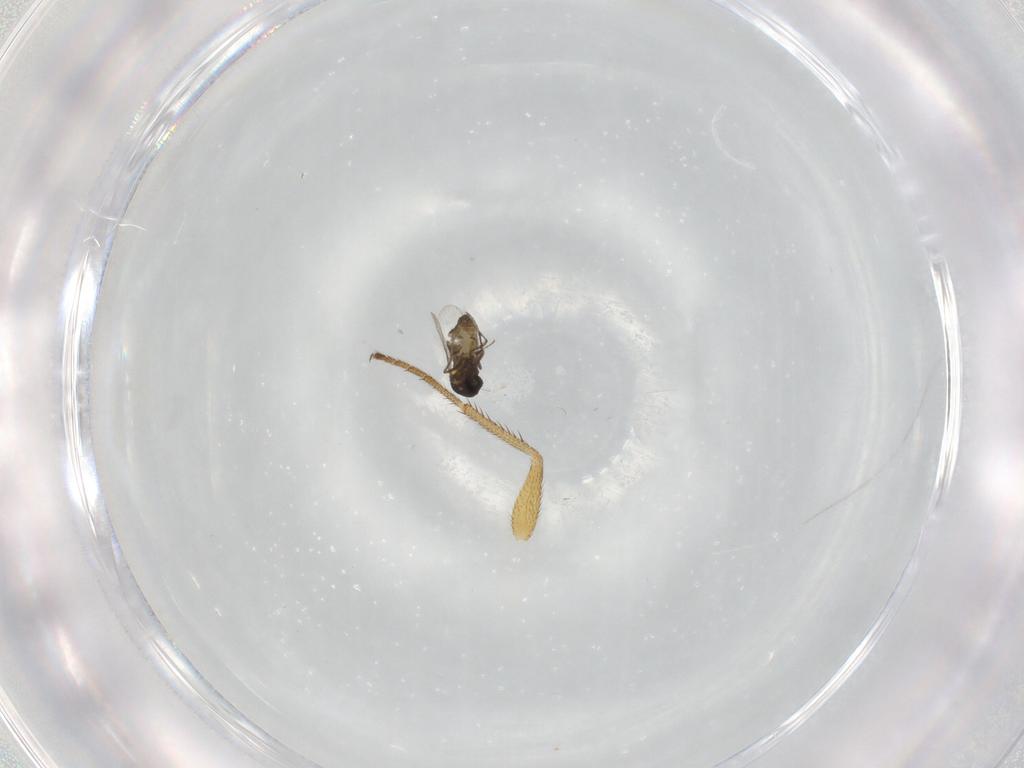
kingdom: Animalia
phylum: Arthropoda
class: Insecta
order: Diptera
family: Ceratopogonidae
